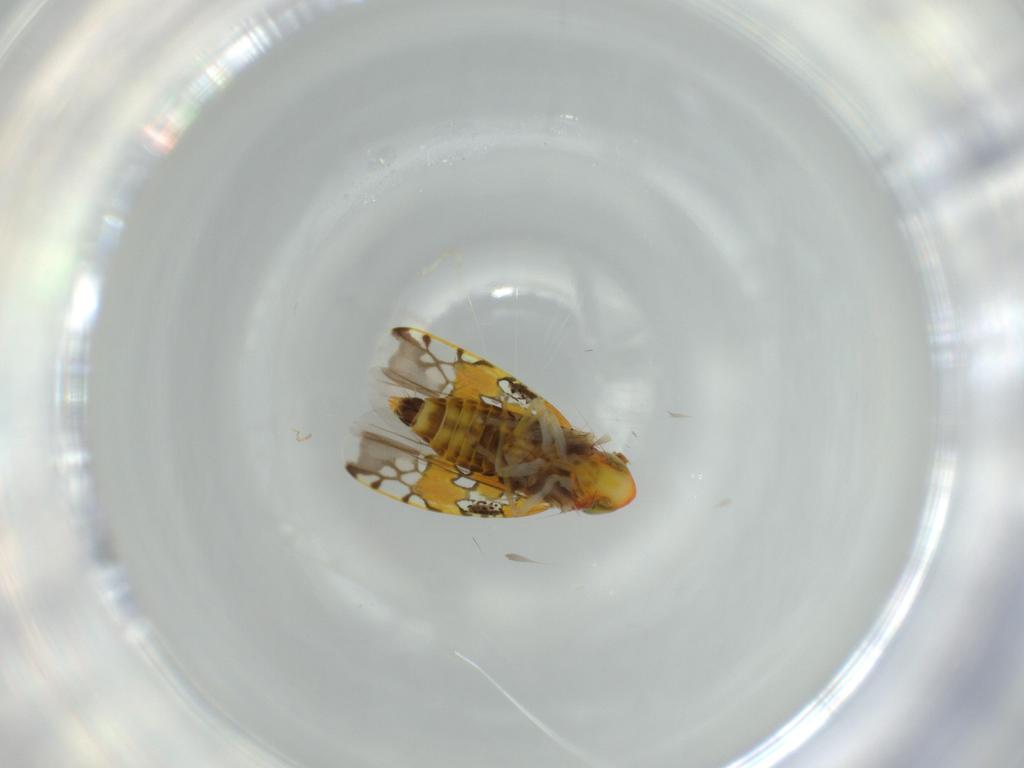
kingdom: Animalia
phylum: Arthropoda
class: Insecta
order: Hemiptera
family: Cicadellidae
